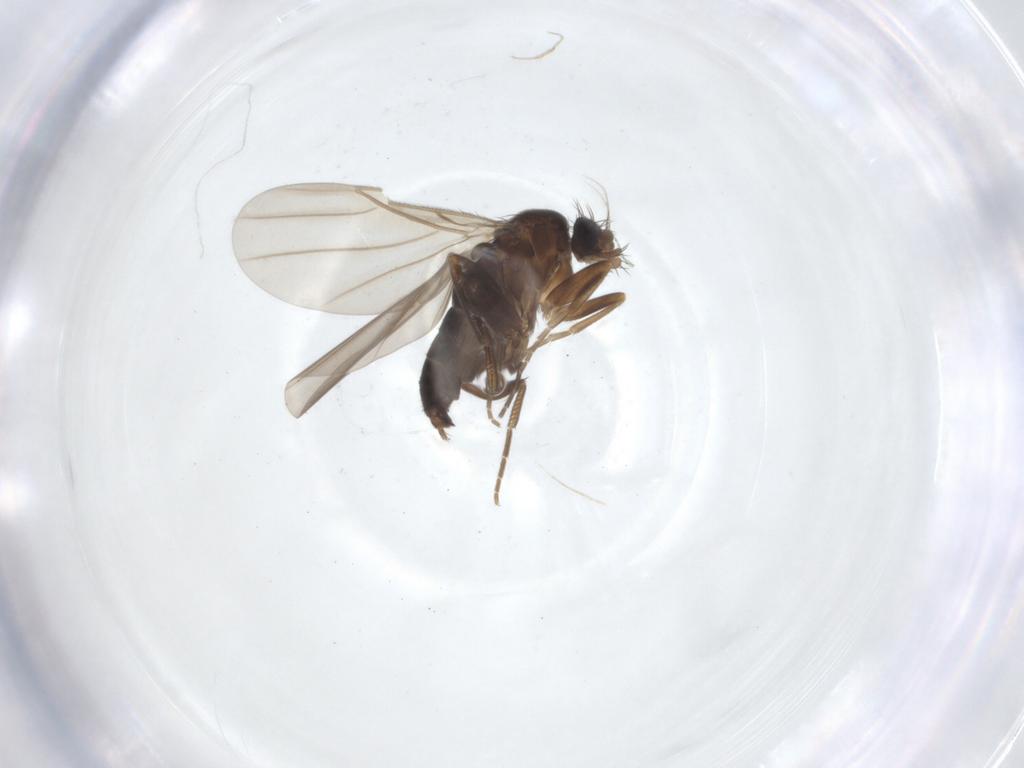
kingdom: Animalia
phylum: Arthropoda
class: Insecta
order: Diptera
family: Phoridae
